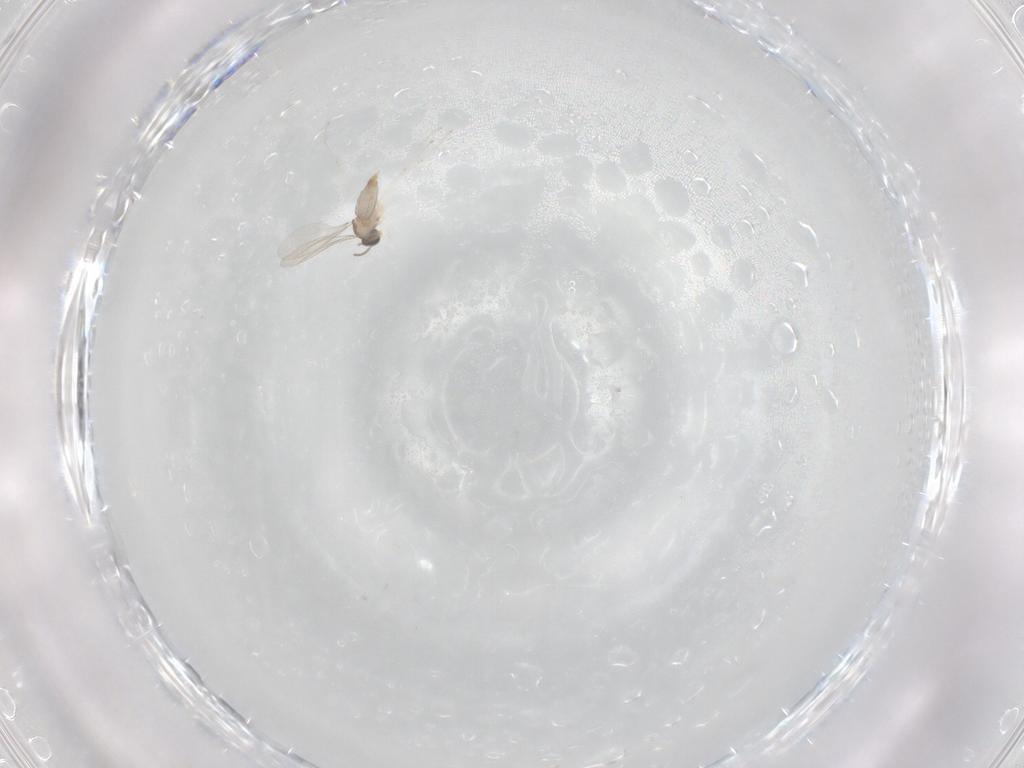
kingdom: Animalia
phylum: Arthropoda
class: Insecta
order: Diptera
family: Cecidomyiidae
